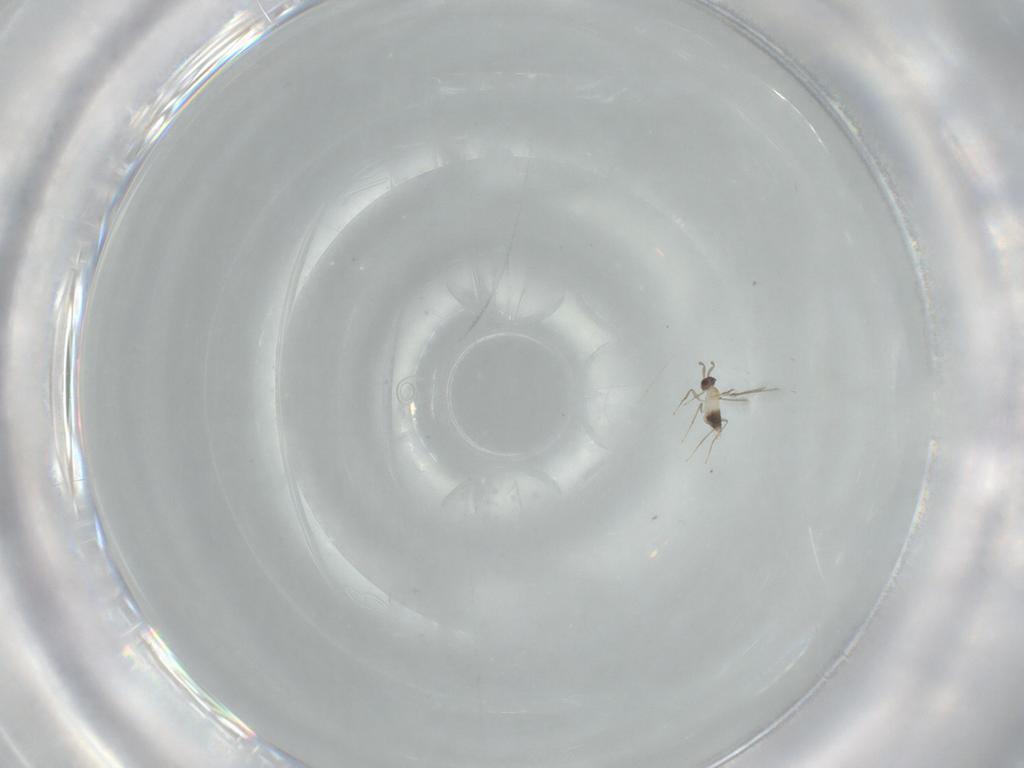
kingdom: Animalia
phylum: Arthropoda
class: Insecta
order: Hymenoptera
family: Mymaridae
